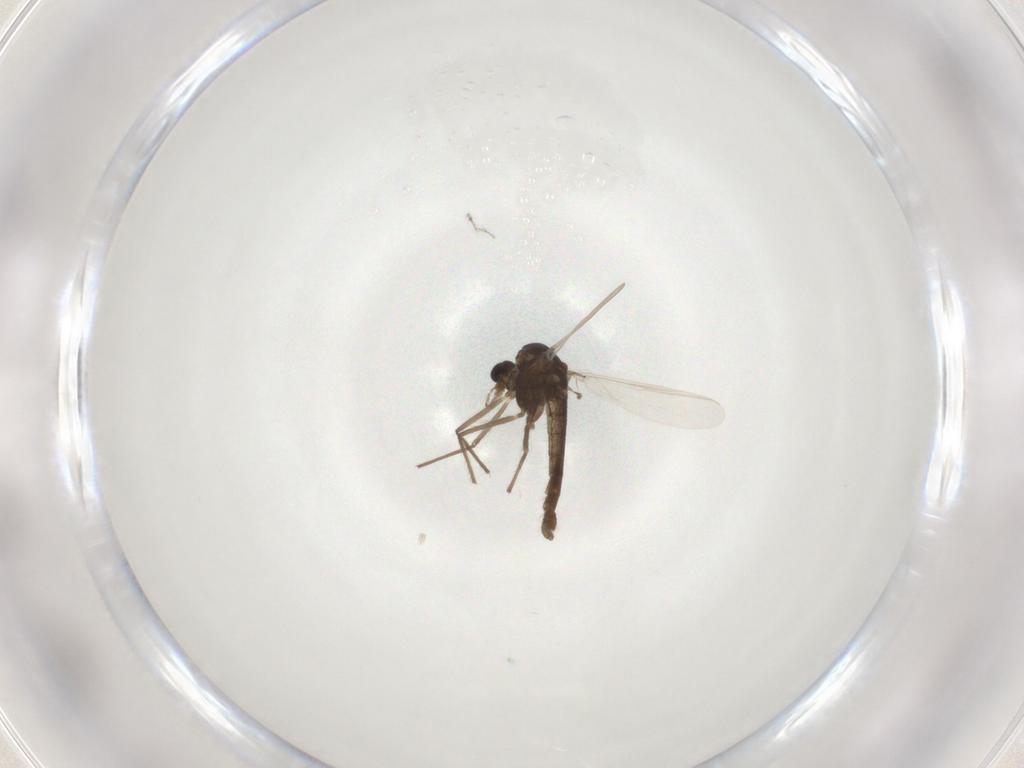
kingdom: Animalia
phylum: Arthropoda
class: Insecta
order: Diptera
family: Chironomidae
